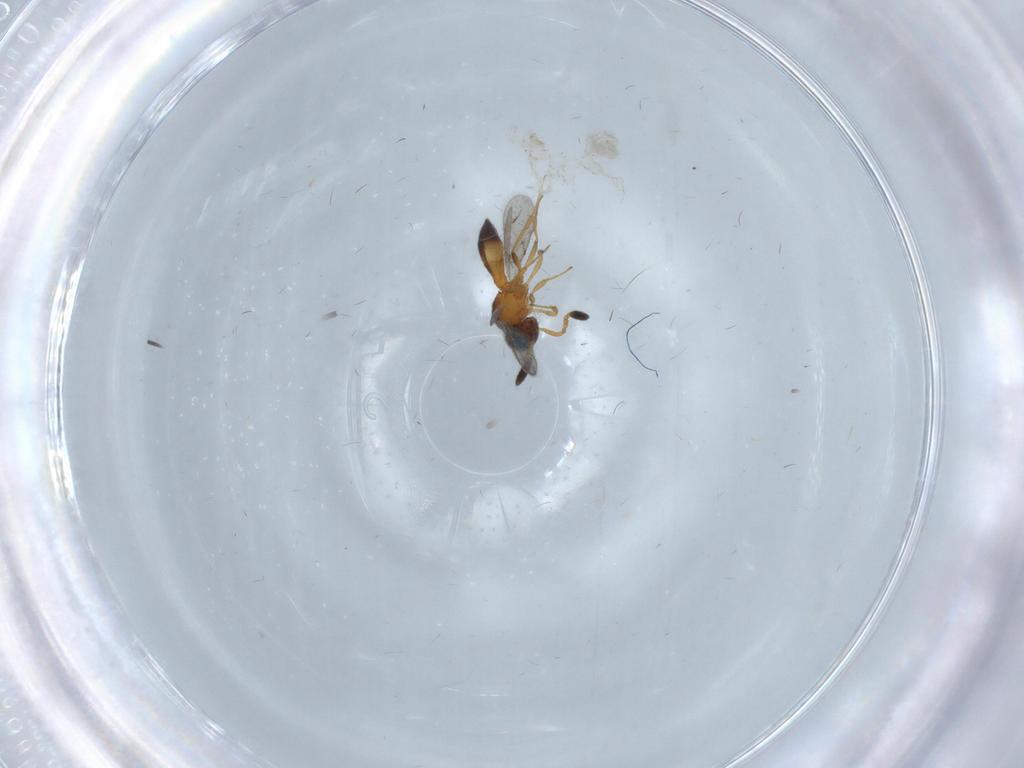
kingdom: Animalia
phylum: Arthropoda
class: Insecta
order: Hymenoptera
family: Scelionidae
